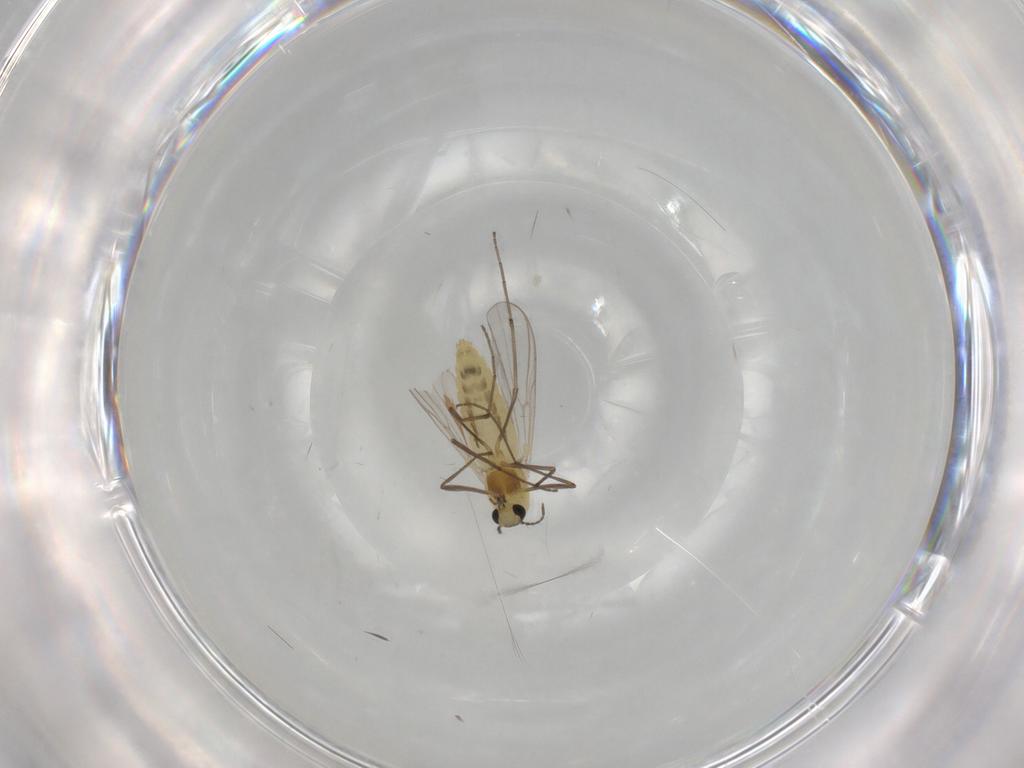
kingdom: Animalia
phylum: Arthropoda
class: Insecta
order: Diptera
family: Chironomidae
